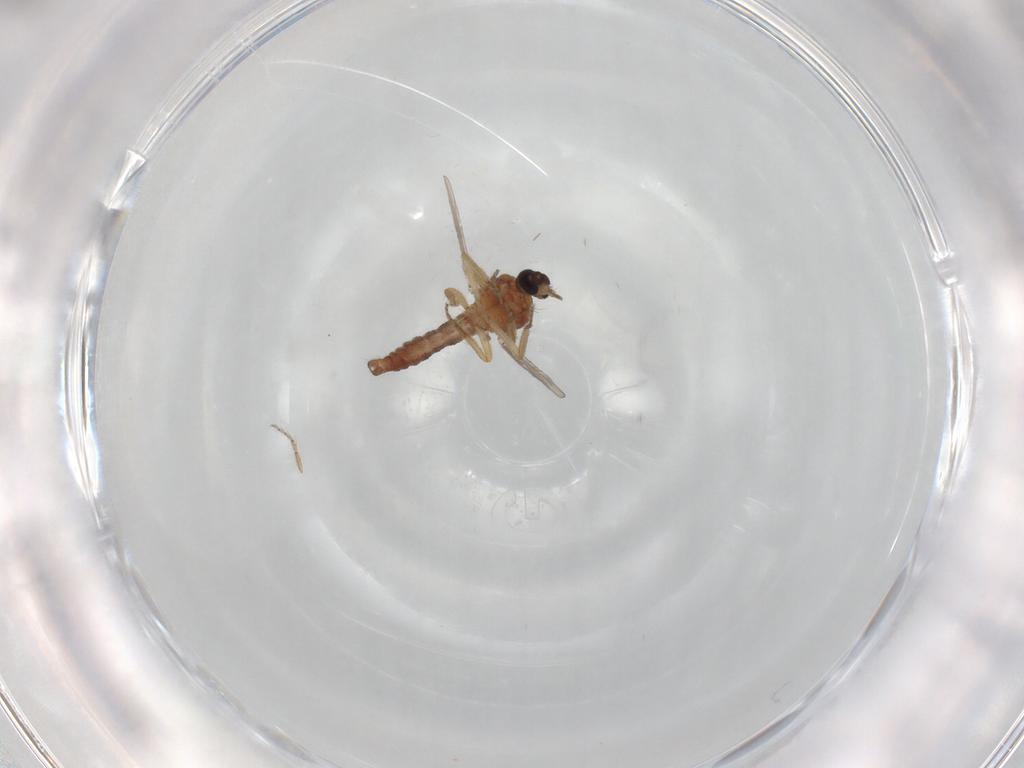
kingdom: Animalia
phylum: Arthropoda
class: Insecta
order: Diptera
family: Ceratopogonidae
